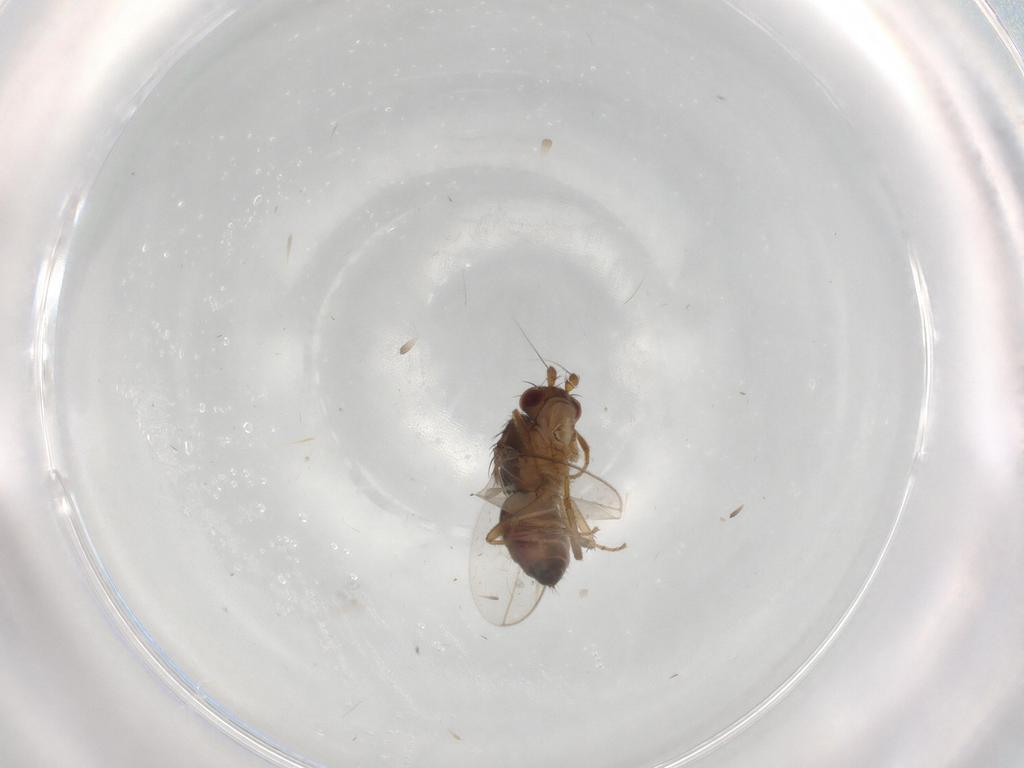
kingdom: Animalia
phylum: Arthropoda
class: Insecta
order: Diptera
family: Sphaeroceridae
